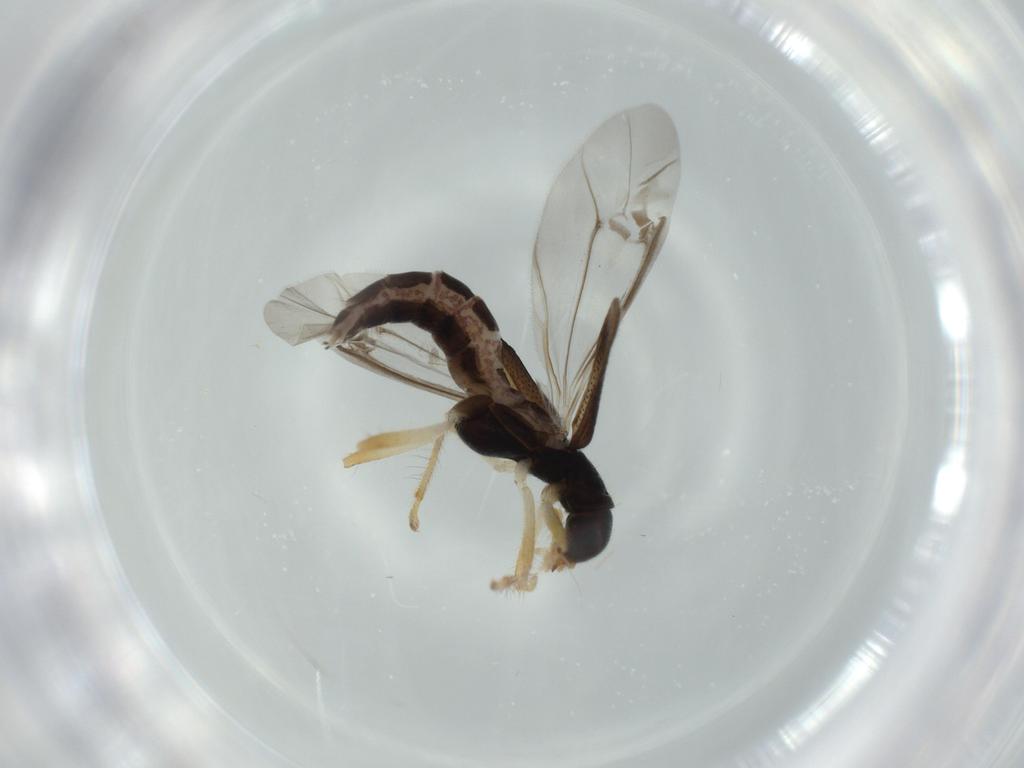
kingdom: Animalia
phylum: Arthropoda
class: Insecta
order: Coleoptera
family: Cleridae
